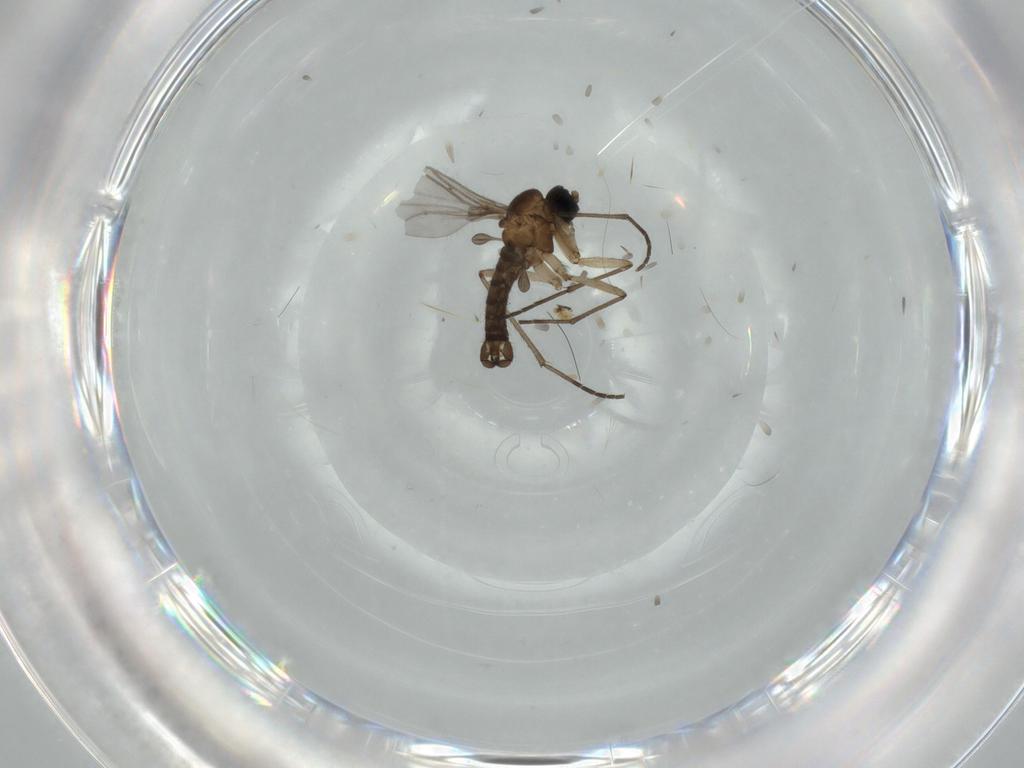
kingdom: Animalia
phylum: Arthropoda
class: Insecta
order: Diptera
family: Sciaridae
